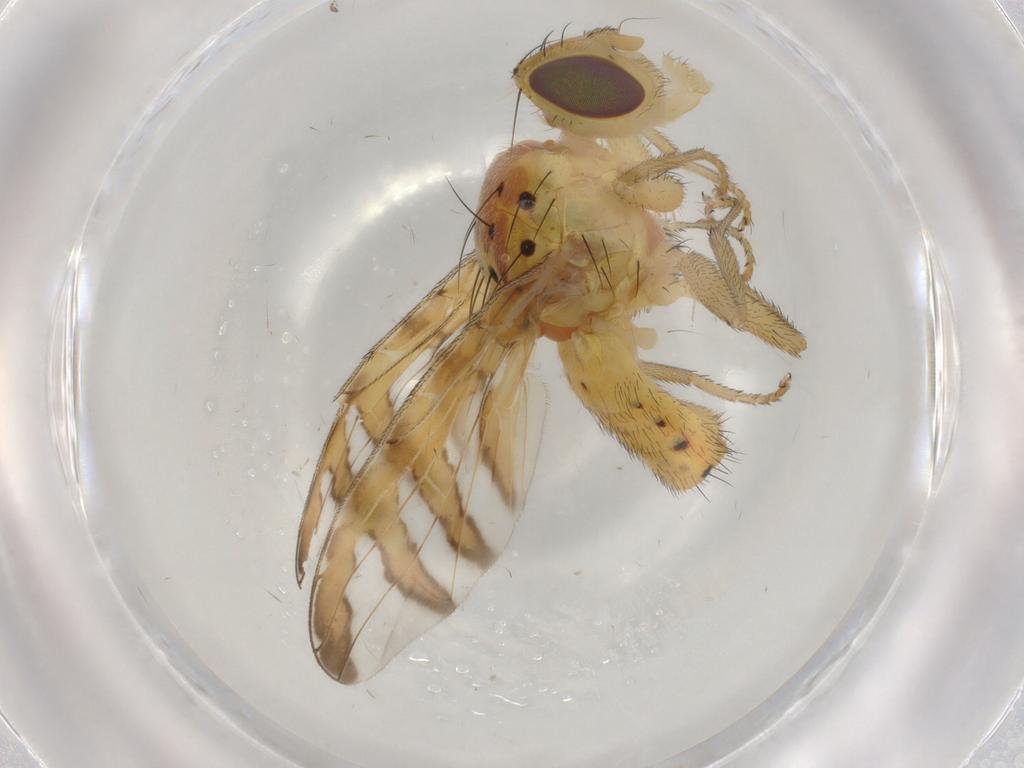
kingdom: Animalia
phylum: Arthropoda
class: Insecta
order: Diptera
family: Tephritidae
